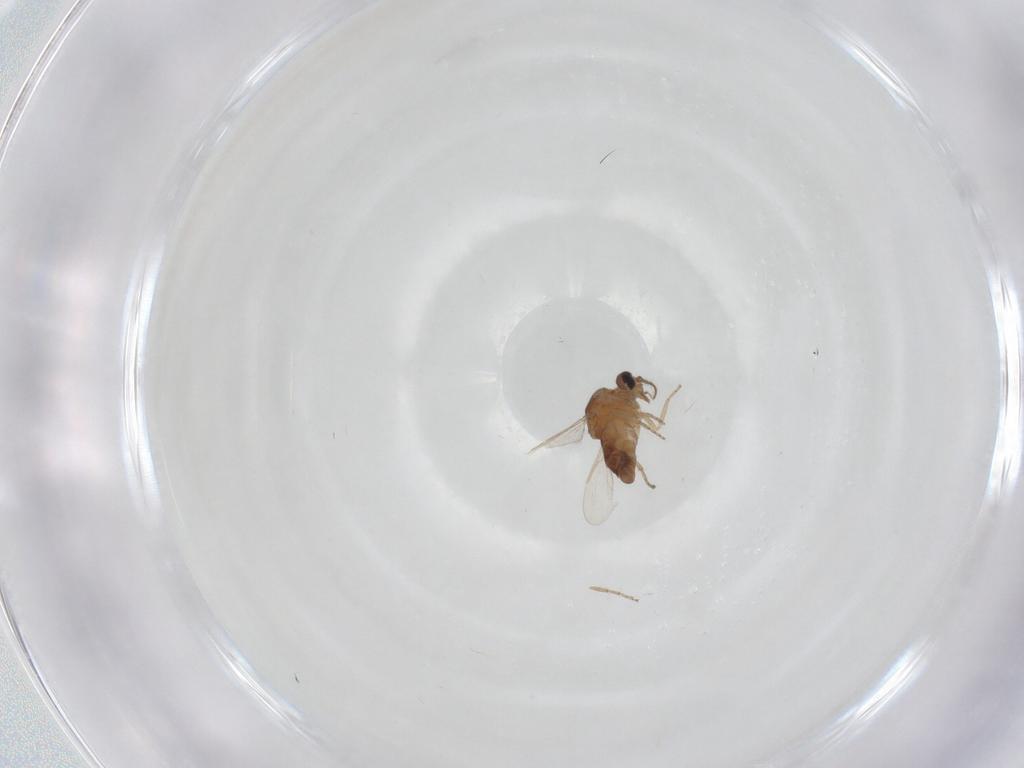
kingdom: Animalia
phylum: Arthropoda
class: Insecta
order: Diptera
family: Ceratopogonidae
